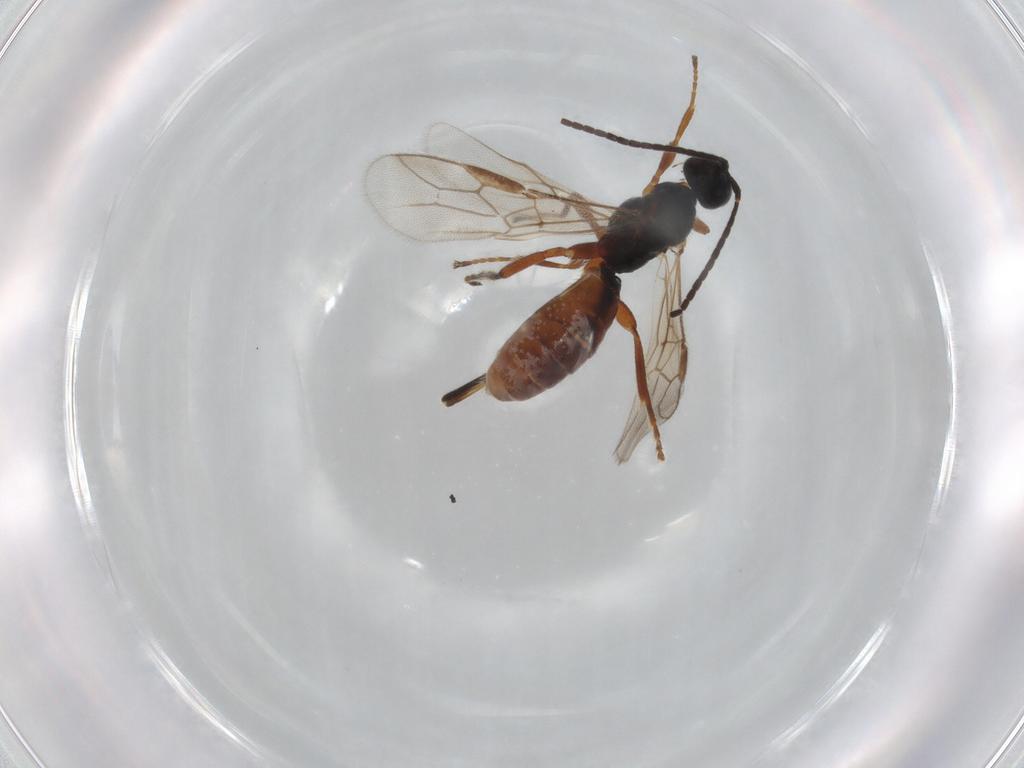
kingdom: Animalia
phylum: Arthropoda
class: Insecta
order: Hymenoptera
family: Braconidae
